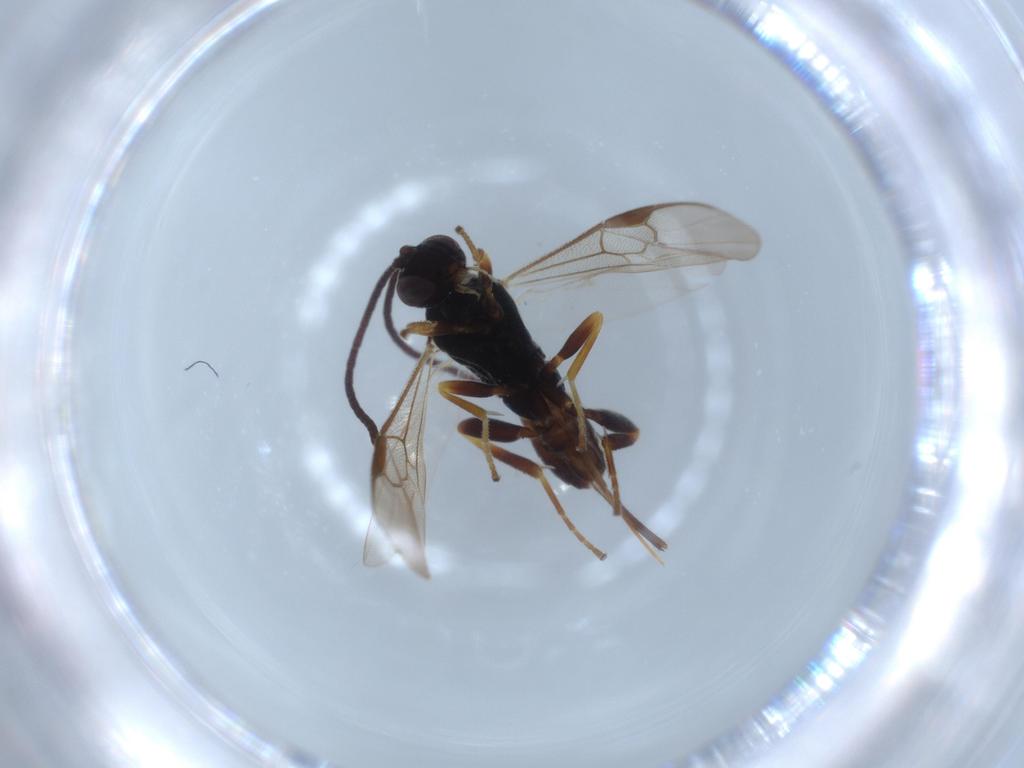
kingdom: Animalia
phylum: Arthropoda
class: Insecta
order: Hymenoptera
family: Braconidae
